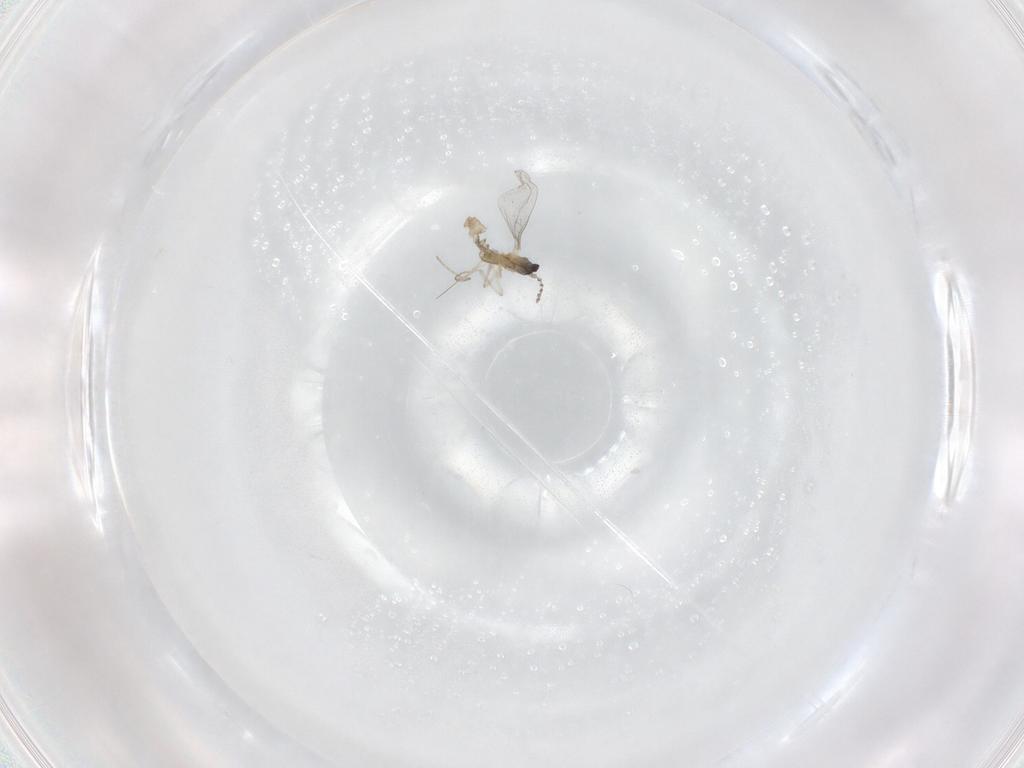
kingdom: Animalia
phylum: Arthropoda
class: Insecta
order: Diptera
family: Cecidomyiidae
